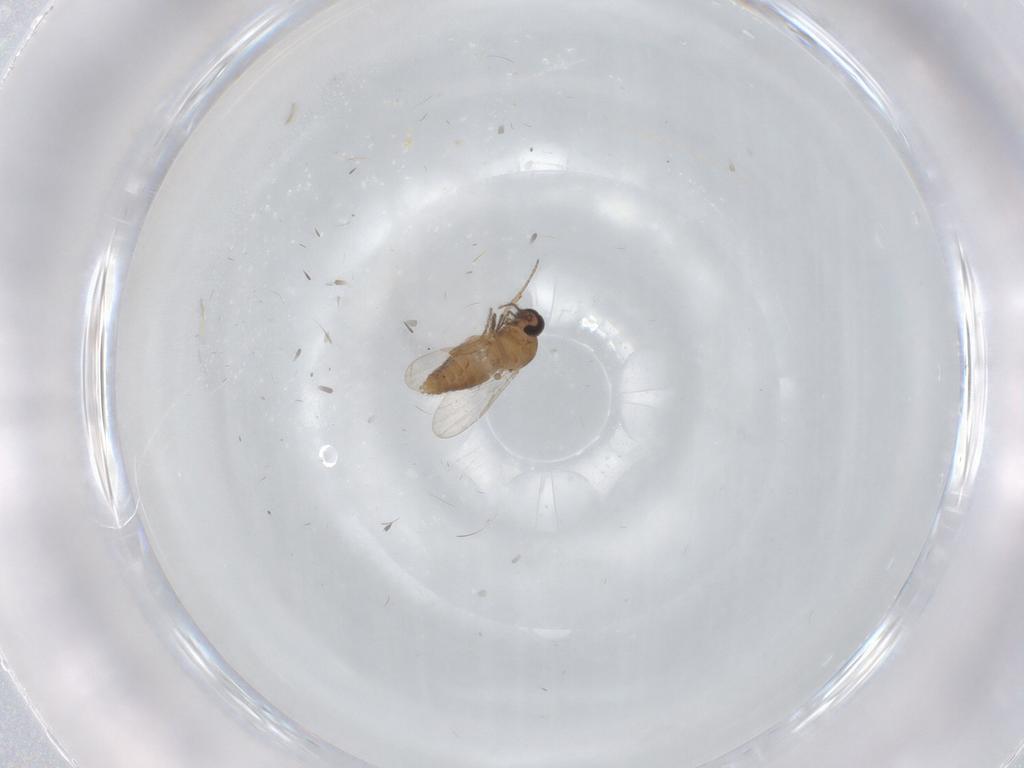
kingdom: Animalia
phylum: Arthropoda
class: Insecta
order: Diptera
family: Ceratopogonidae
